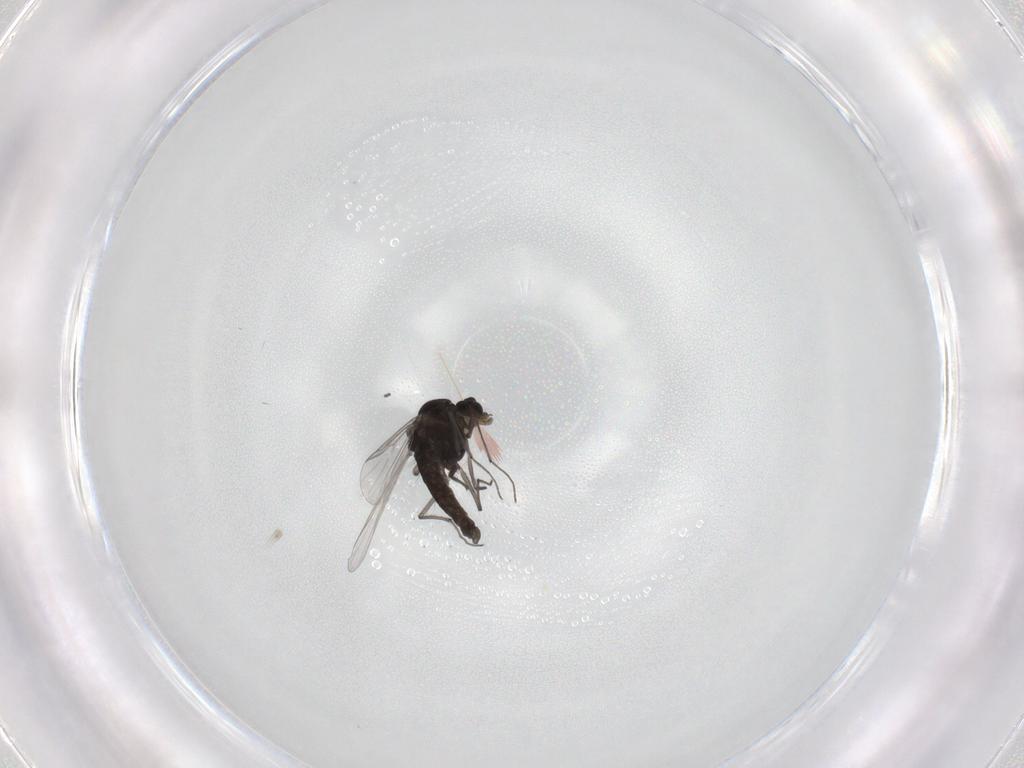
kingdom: Animalia
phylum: Arthropoda
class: Insecta
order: Diptera
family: Chironomidae
